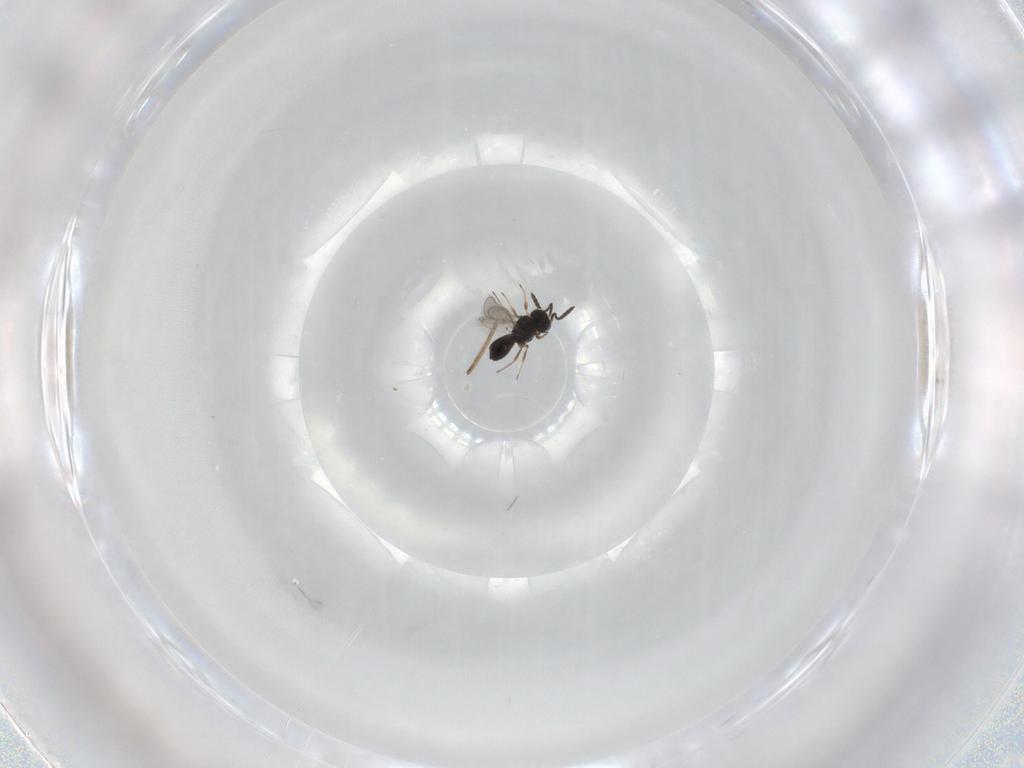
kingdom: Animalia
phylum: Arthropoda
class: Insecta
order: Hymenoptera
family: Scelionidae
